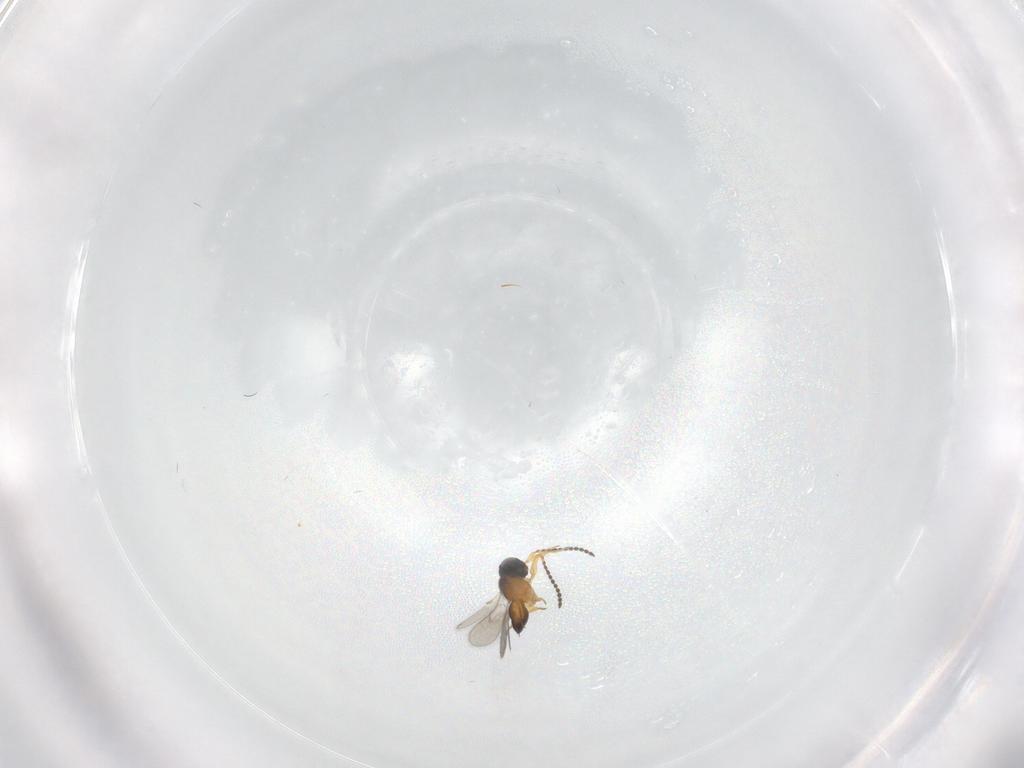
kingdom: Animalia
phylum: Arthropoda
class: Insecta
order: Hymenoptera
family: Scelionidae
